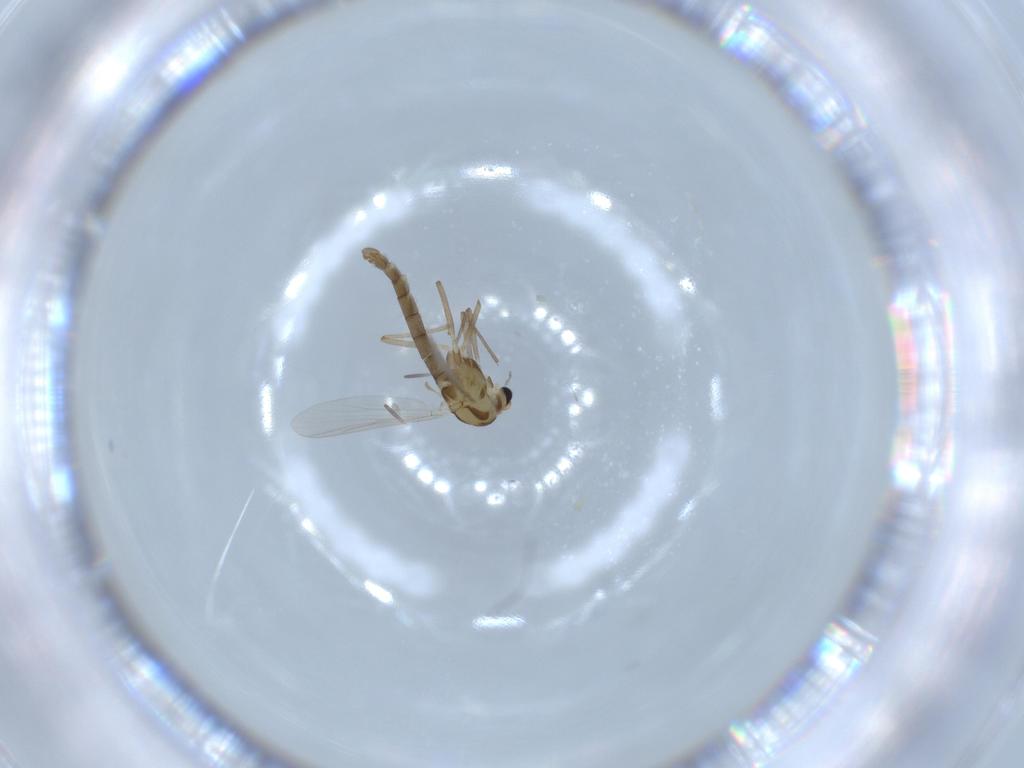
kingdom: Animalia
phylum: Arthropoda
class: Insecta
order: Diptera
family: Chironomidae
